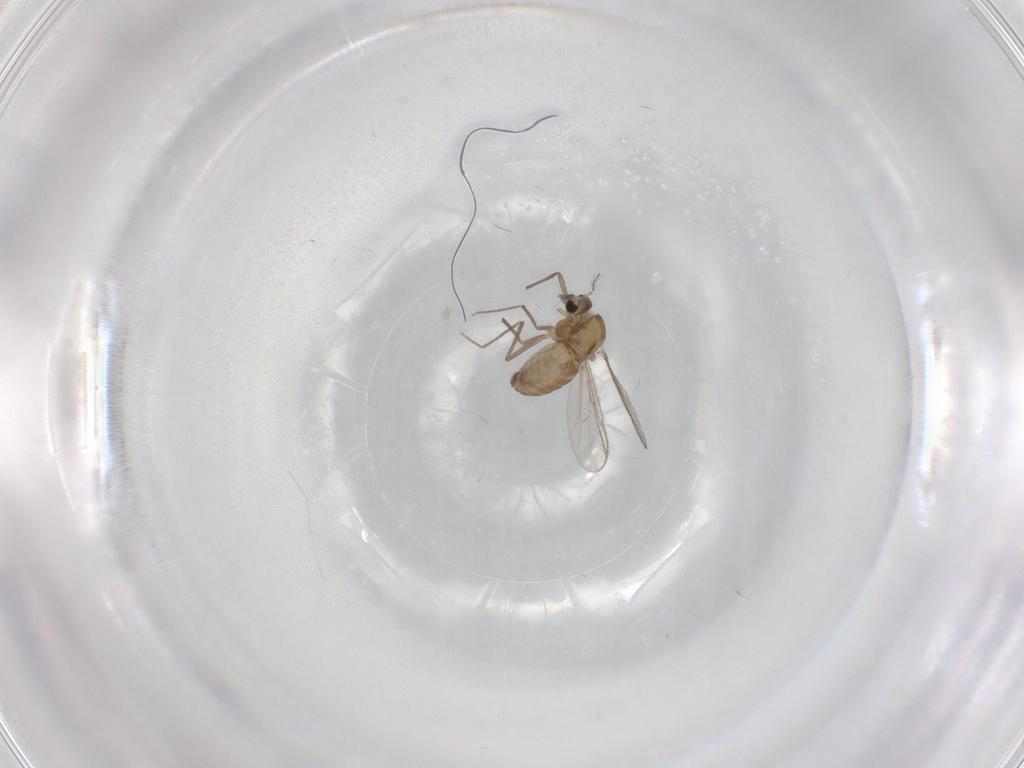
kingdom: Animalia
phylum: Arthropoda
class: Insecta
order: Diptera
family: Chironomidae
